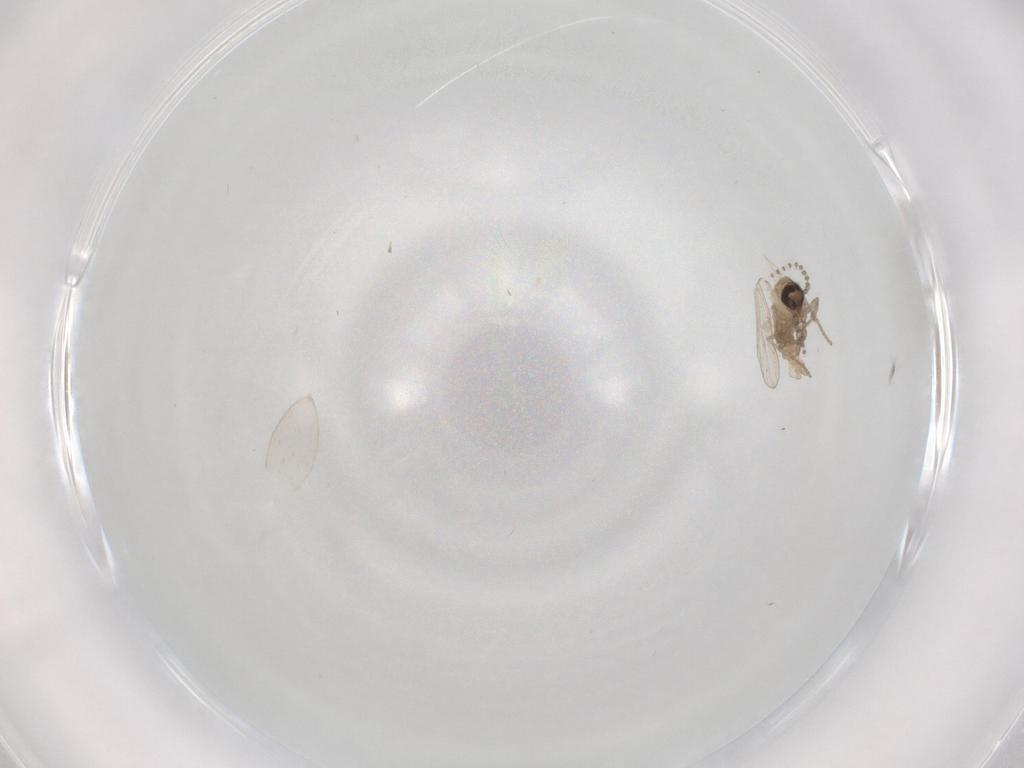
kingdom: Animalia
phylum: Arthropoda
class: Insecta
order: Diptera
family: Psychodidae
